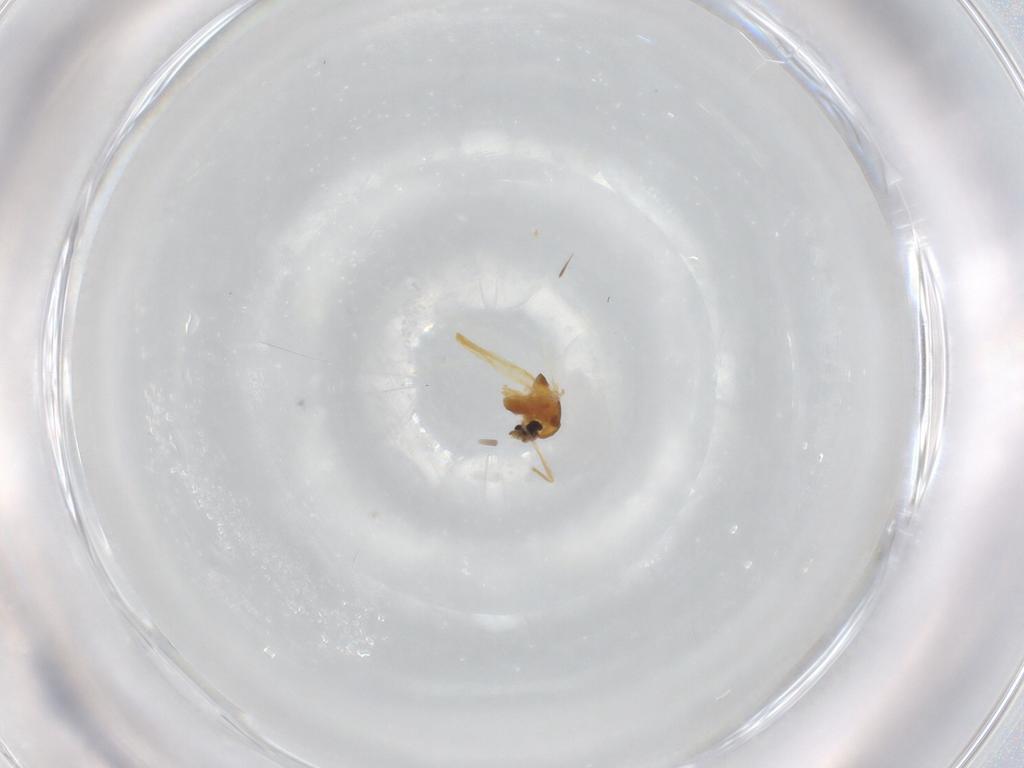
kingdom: Animalia
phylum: Arthropoda
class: Insecta
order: Diptera
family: Chironomidae
